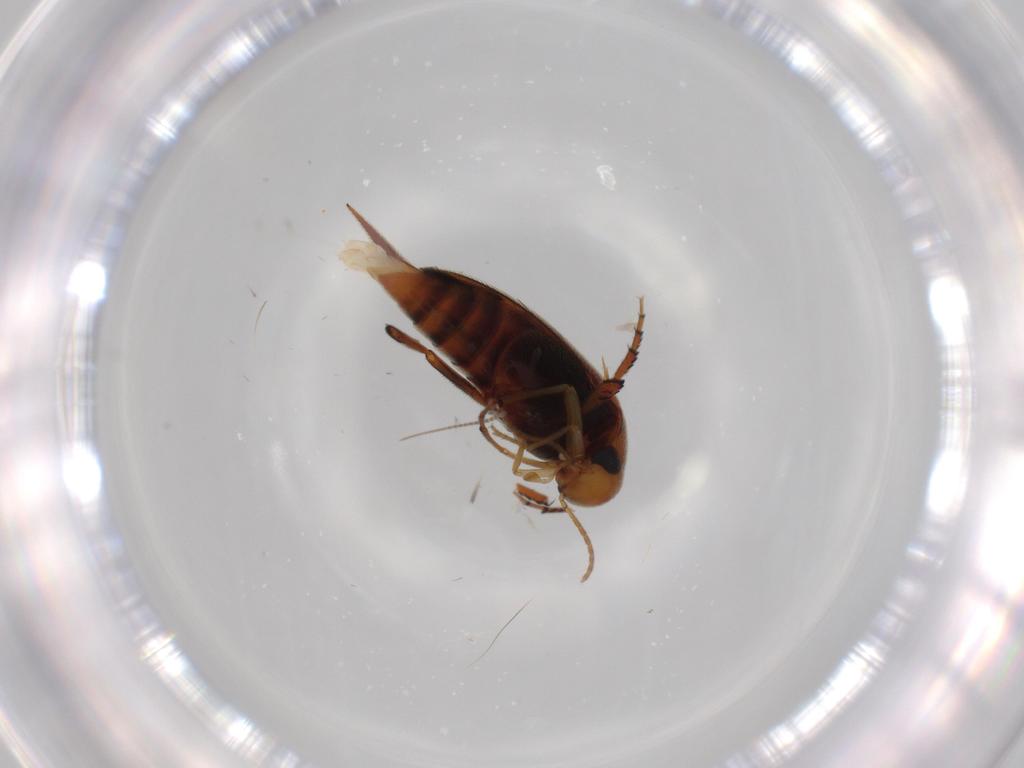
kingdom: Animalia
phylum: Arthropoda
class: Insecta
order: Coleoptera
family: Mordellidae
